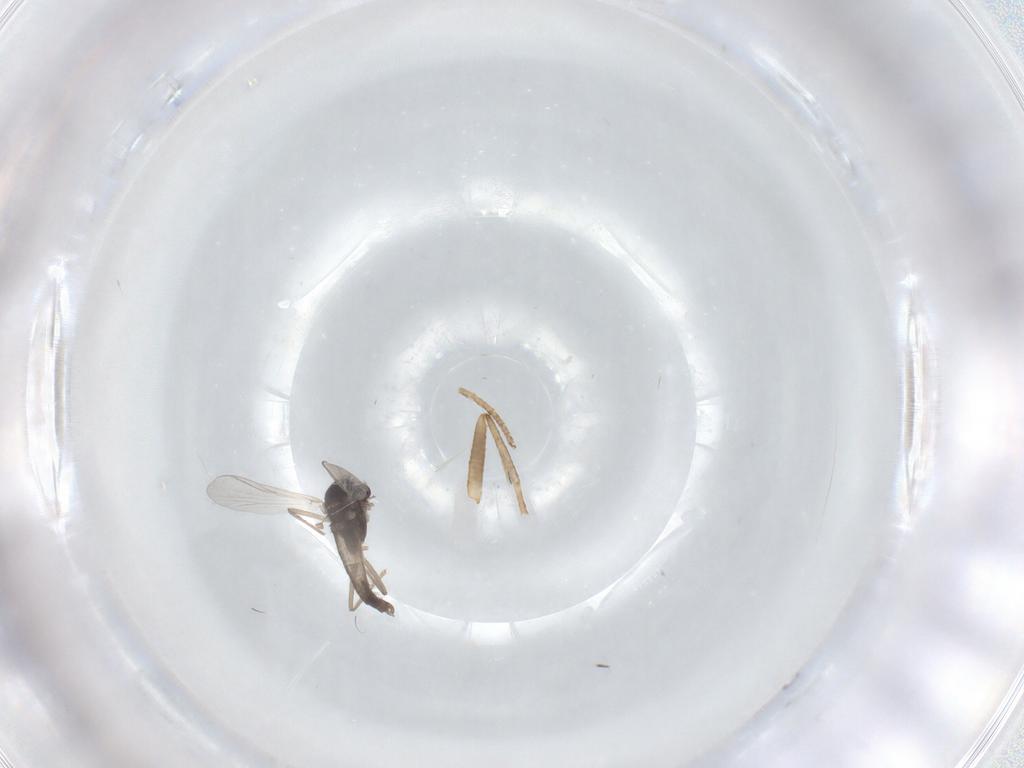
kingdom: Animalia
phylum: Arthropoda
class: Insecta
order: Diptera
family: Chironomidae
